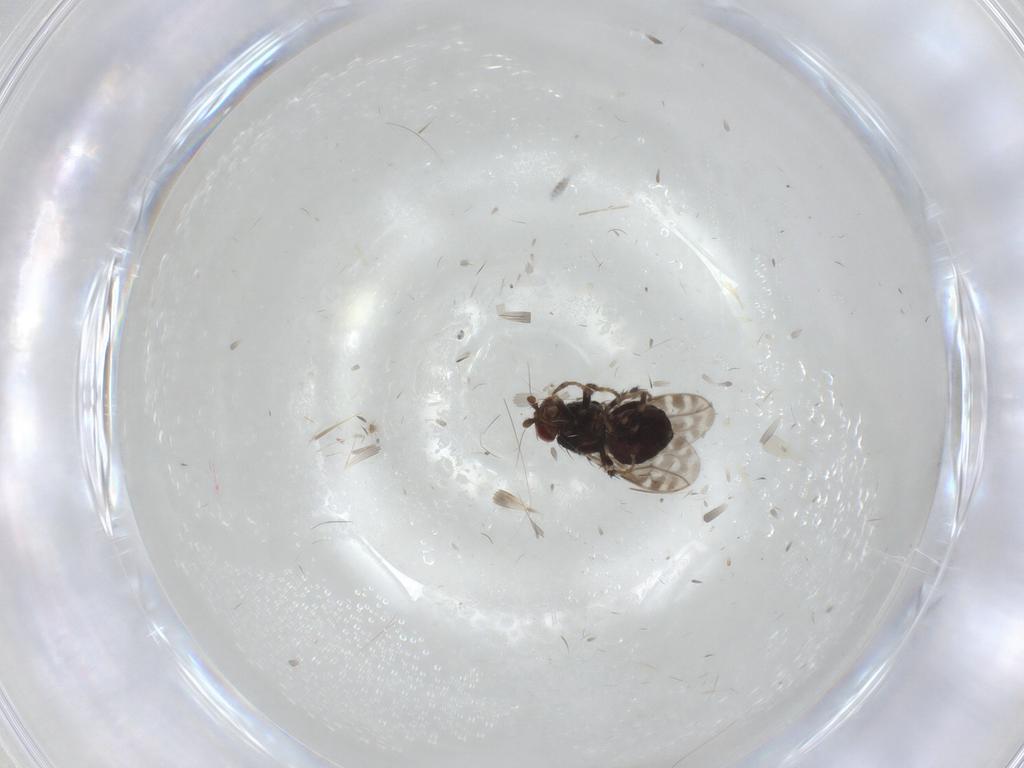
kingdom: Animalia
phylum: Arthropoda
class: Insecta
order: Diptera
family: Sphaeroceridae
